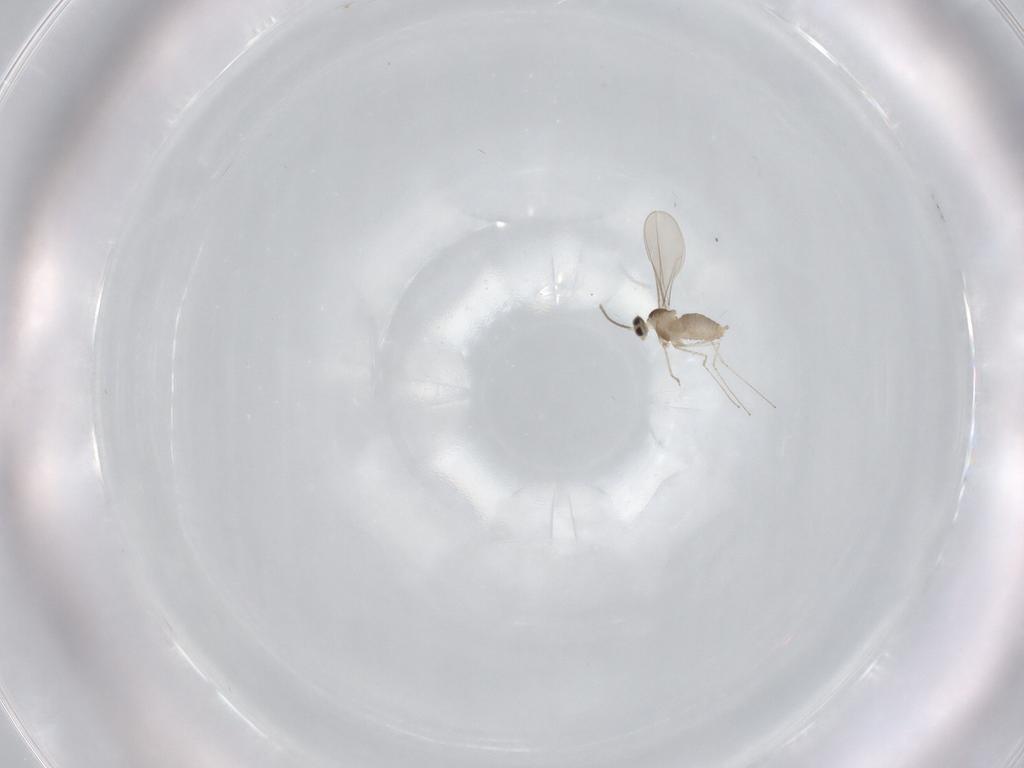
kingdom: Animalia
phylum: Arthropoda
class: Insecta
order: Diptera
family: Cecidomyiidae
